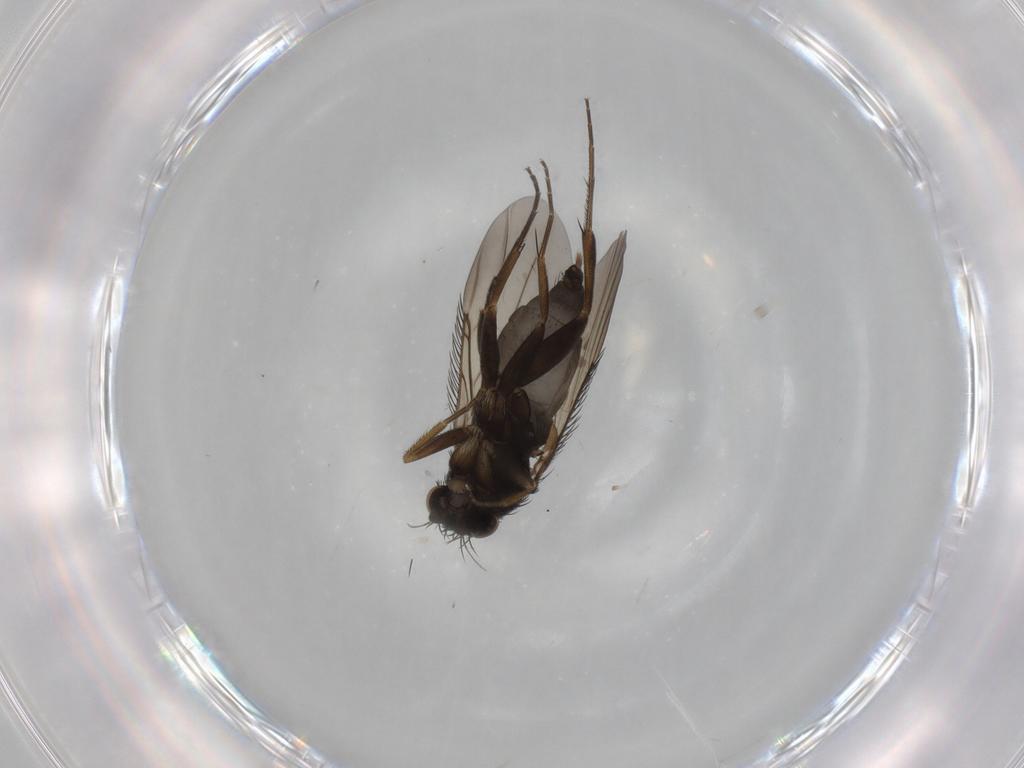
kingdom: Animalia
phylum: Arthropoda
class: Insecta
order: Diptera
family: Phoridae
